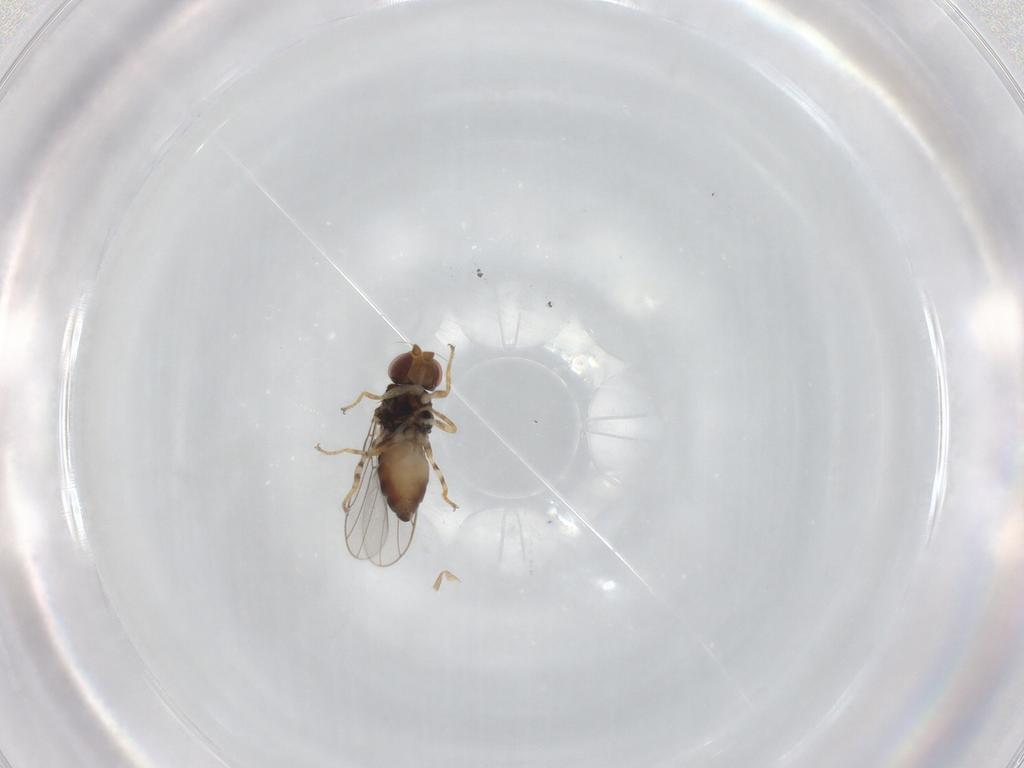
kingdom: Animalia
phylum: Arthropoda
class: Insecta
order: Diptera
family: Chloropidae
